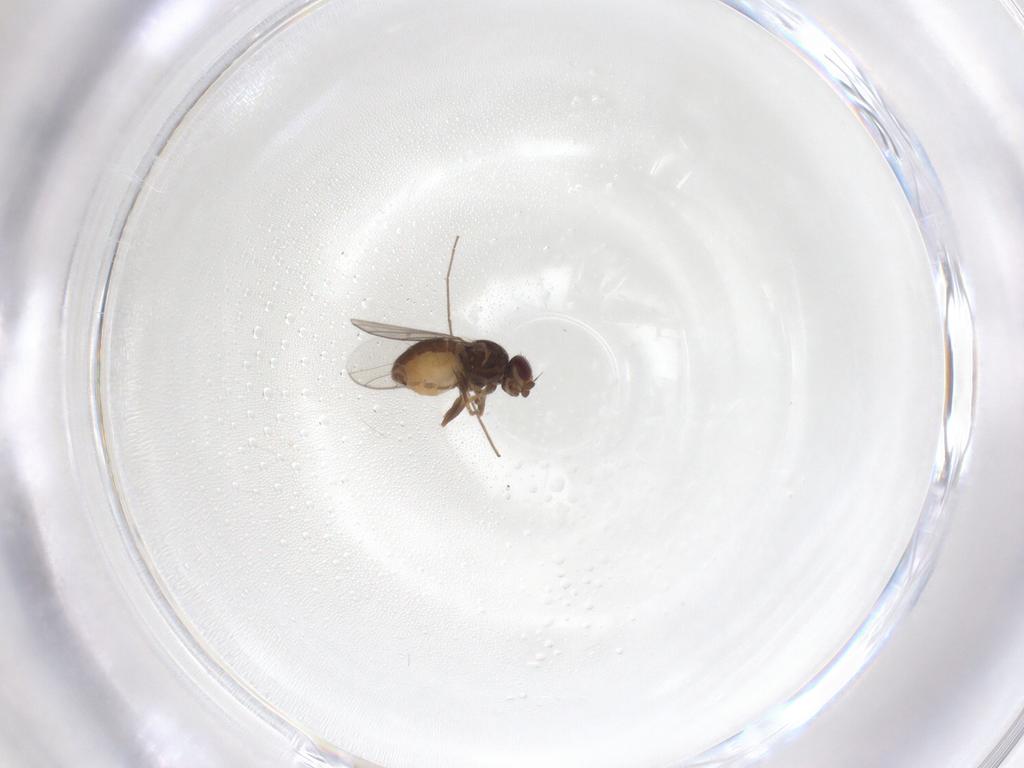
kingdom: Animalia
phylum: Arthropoda
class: Insecta
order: Diptera
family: Chloropidae
